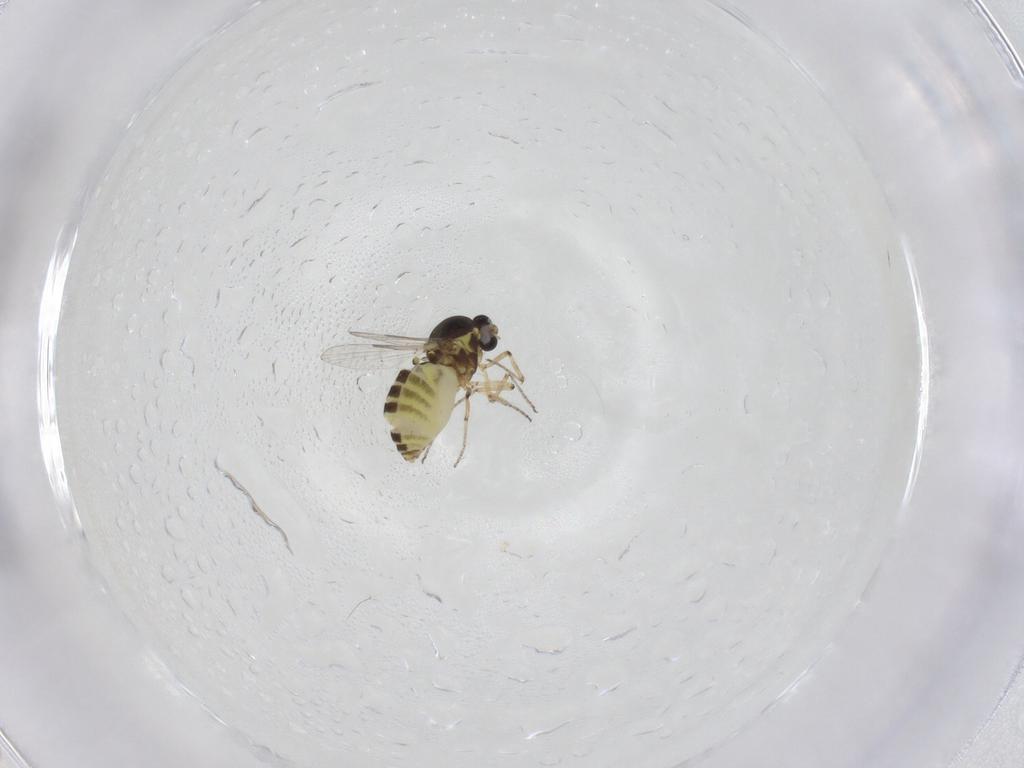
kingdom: Animalia
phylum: Arthropoda
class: Insecta
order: Diptera
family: Ceratopogonidae
